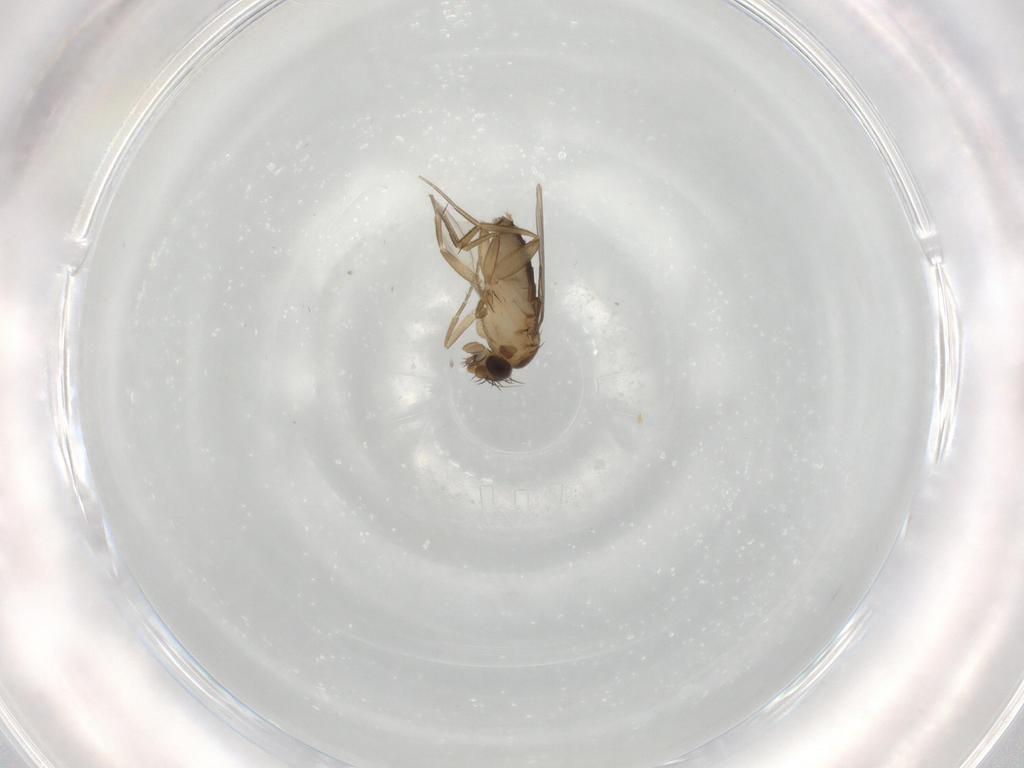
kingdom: Animalia
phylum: Arthropoda
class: Insecta
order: Diptera
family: Phoridae
